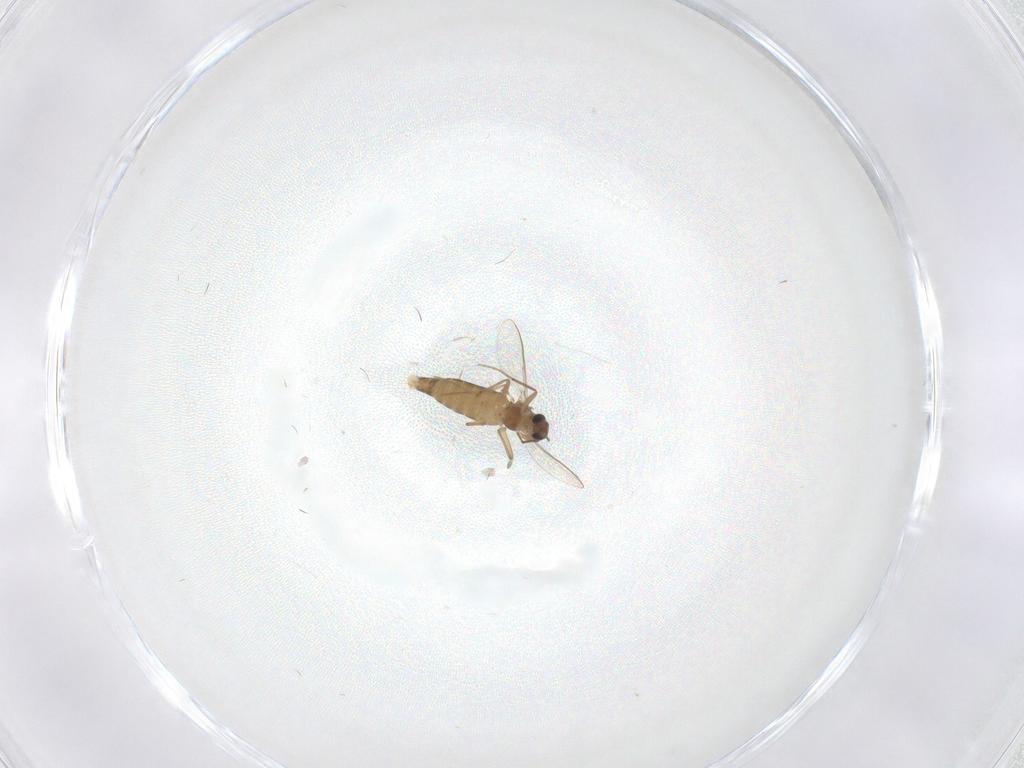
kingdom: Animalia
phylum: Arthropoda
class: Insecta
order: Diptera
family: Chironomidae
